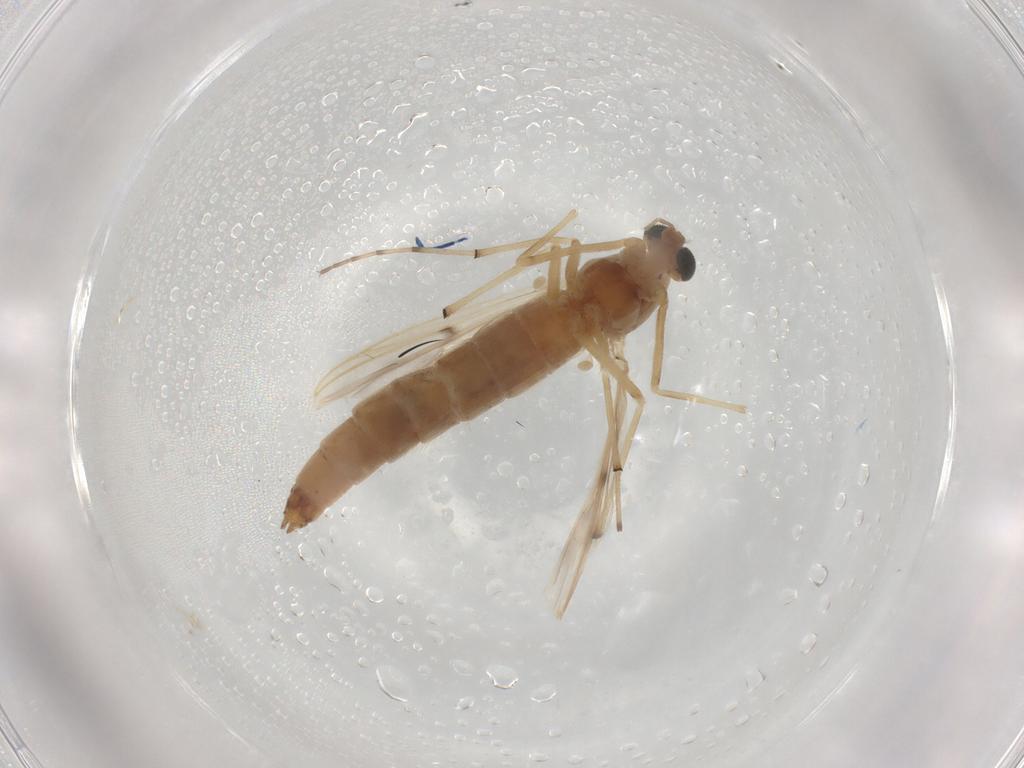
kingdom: Animalia
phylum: Arthropoda
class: Insecta
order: Diptera
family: Chironomidae
